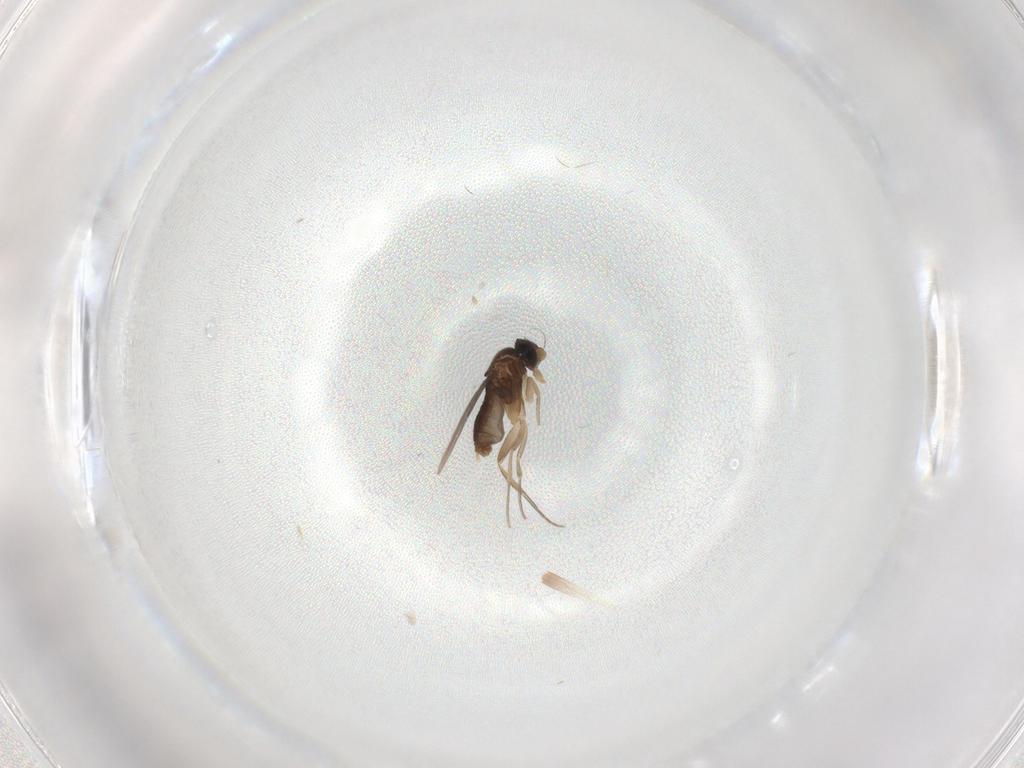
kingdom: Animalia
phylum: Arthropoda
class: Insecta
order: Diptera
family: Phoridae
